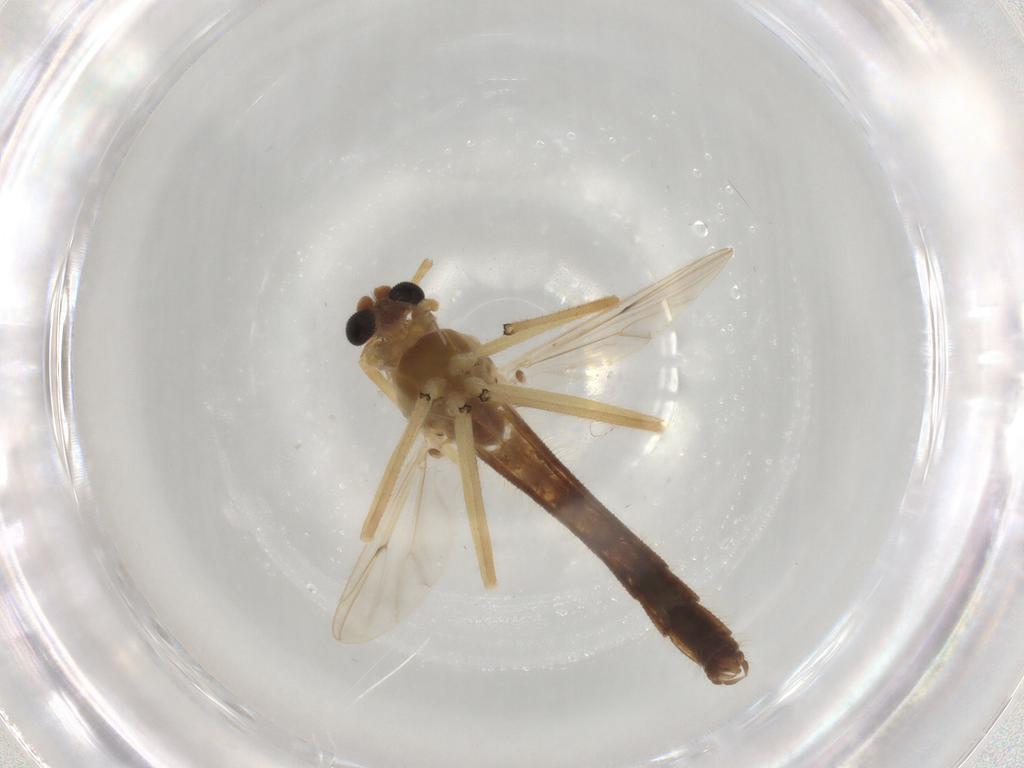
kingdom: Animalia
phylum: Arthropoda
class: Insecta
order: Diptera
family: Chironomidae
